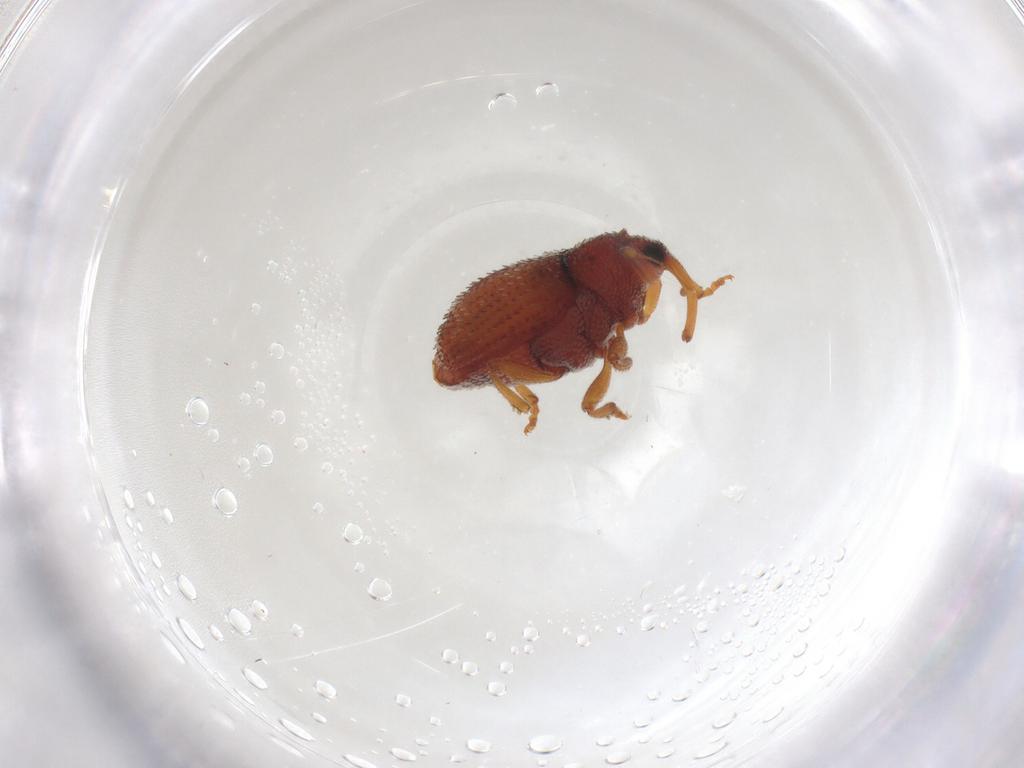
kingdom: Animalia
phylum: Arthropoda
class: Insecta
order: Coleoptera
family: Curculionidae
